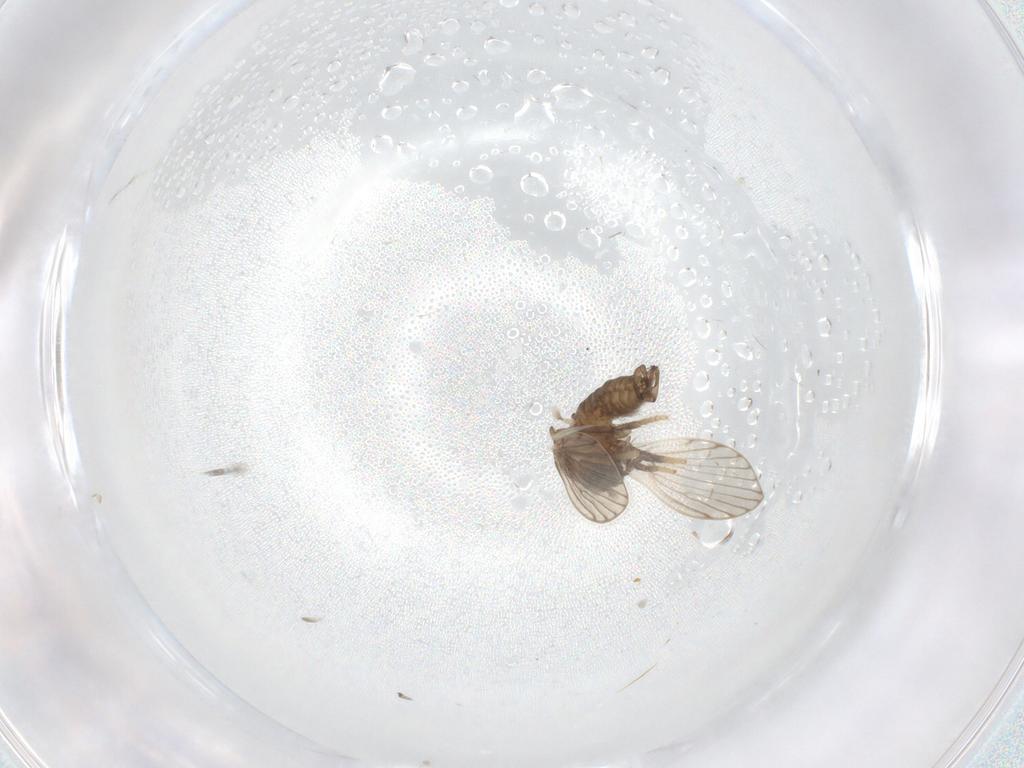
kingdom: Animalia
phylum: Arthropoda
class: Insecta
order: Diptera
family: Psychodidae
